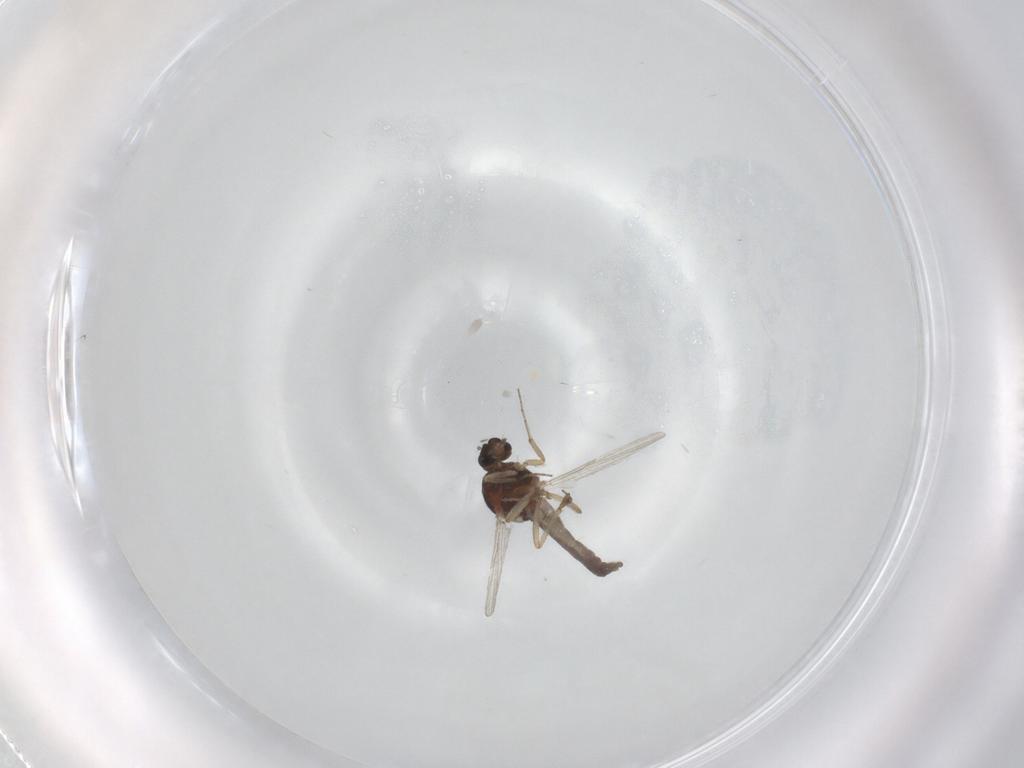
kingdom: Animalia
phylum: Arthropoda
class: Insecta
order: Diptera
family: Ceratopogonidae
